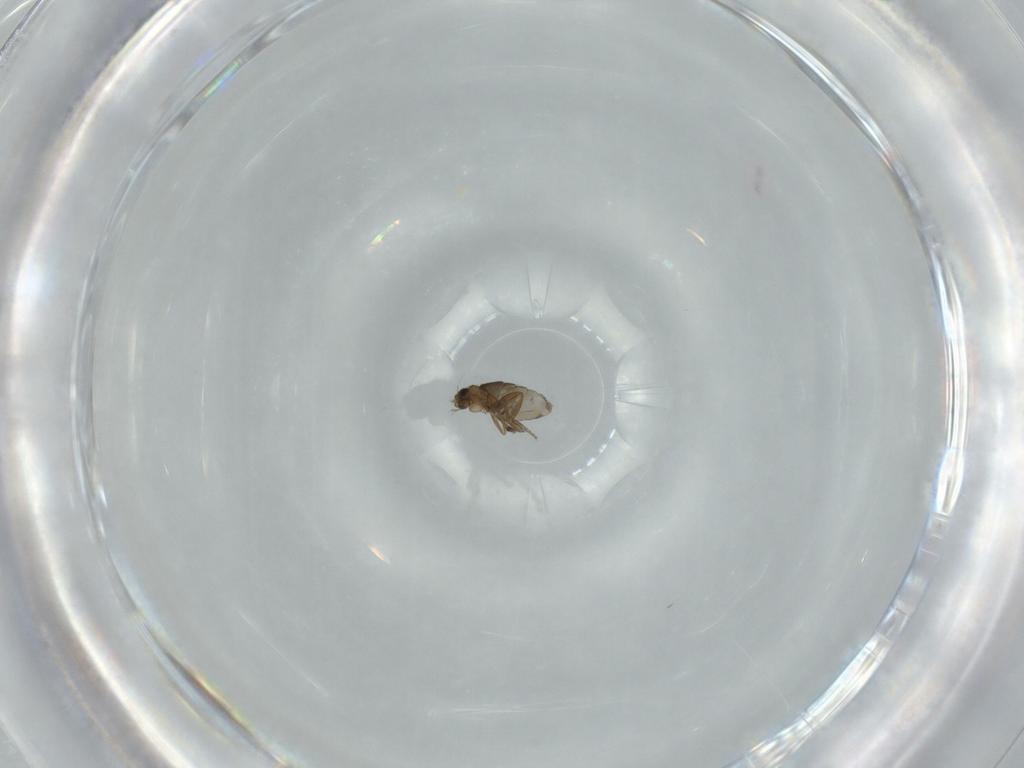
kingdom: Animalia
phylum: Arthropoda
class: Insecta
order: Diptera
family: Phoridae
